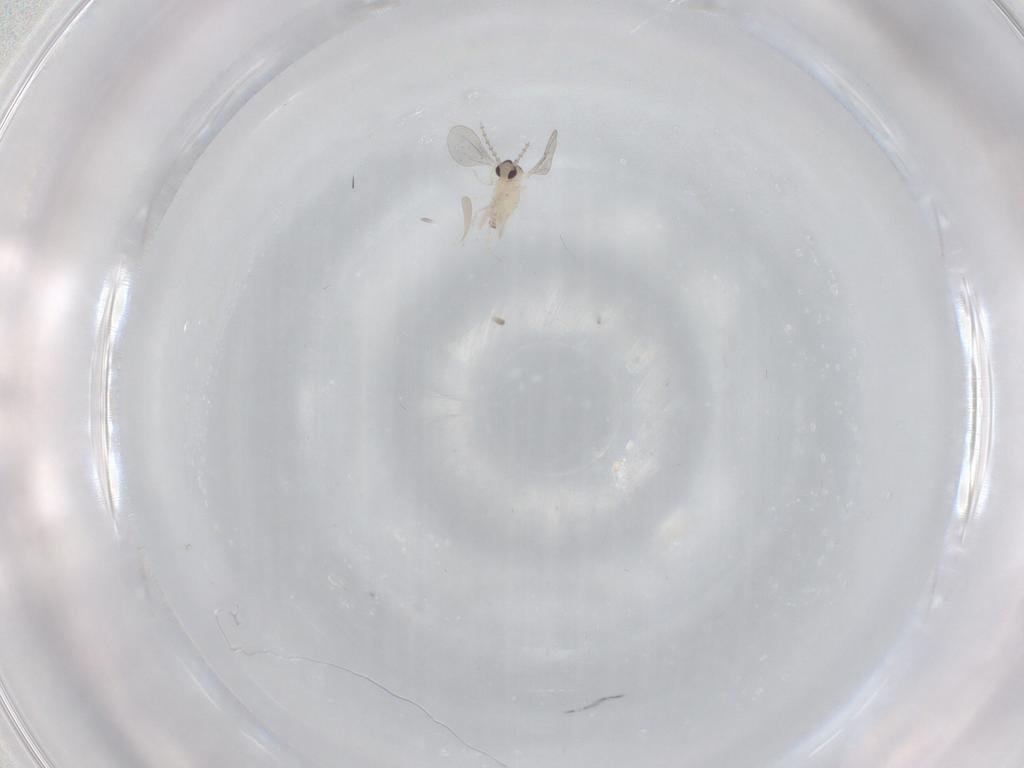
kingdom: Animalia
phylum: Arthropoda
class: Insecta
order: Diptera
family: Cecidomyiidae
